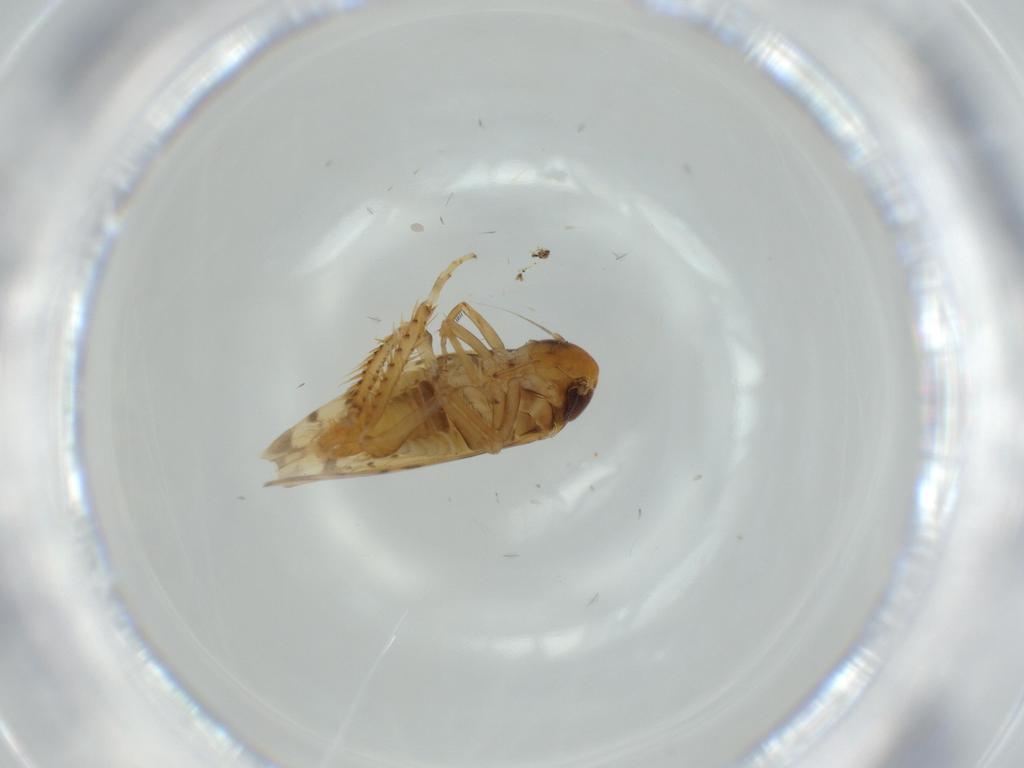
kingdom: Animalia
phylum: Arthropoda
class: Insecta
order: Hemiptera
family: Cicadellidae
